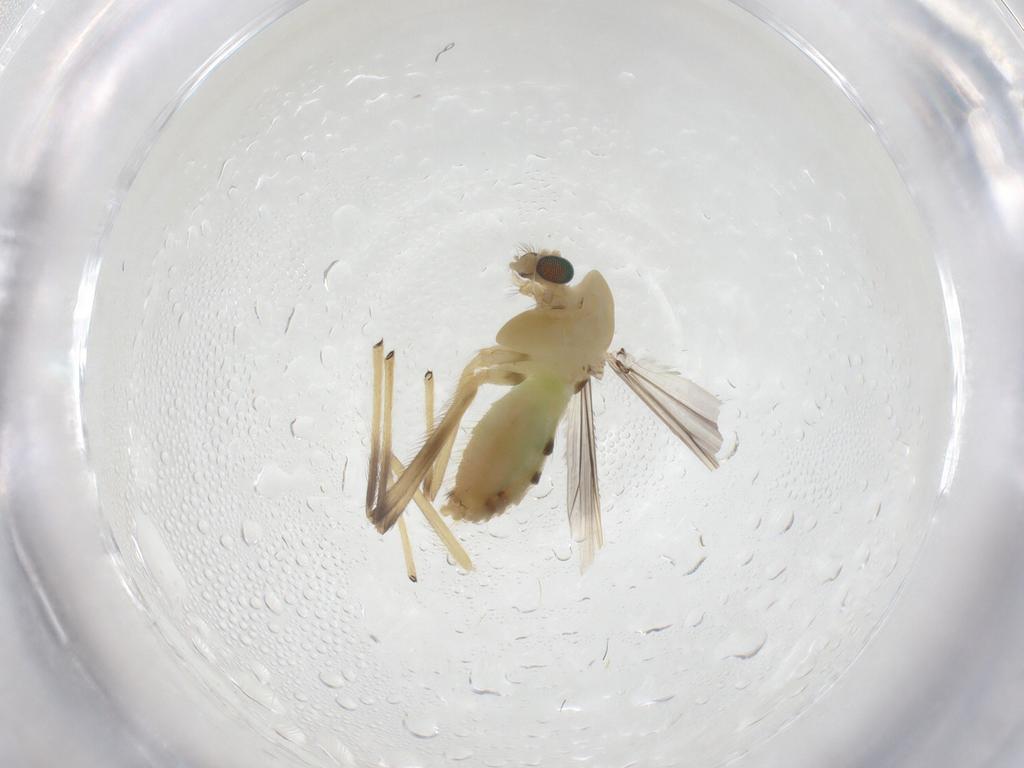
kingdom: Animalia
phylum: Arthropoda
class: Insecta
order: Diptera
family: Chironomidae
